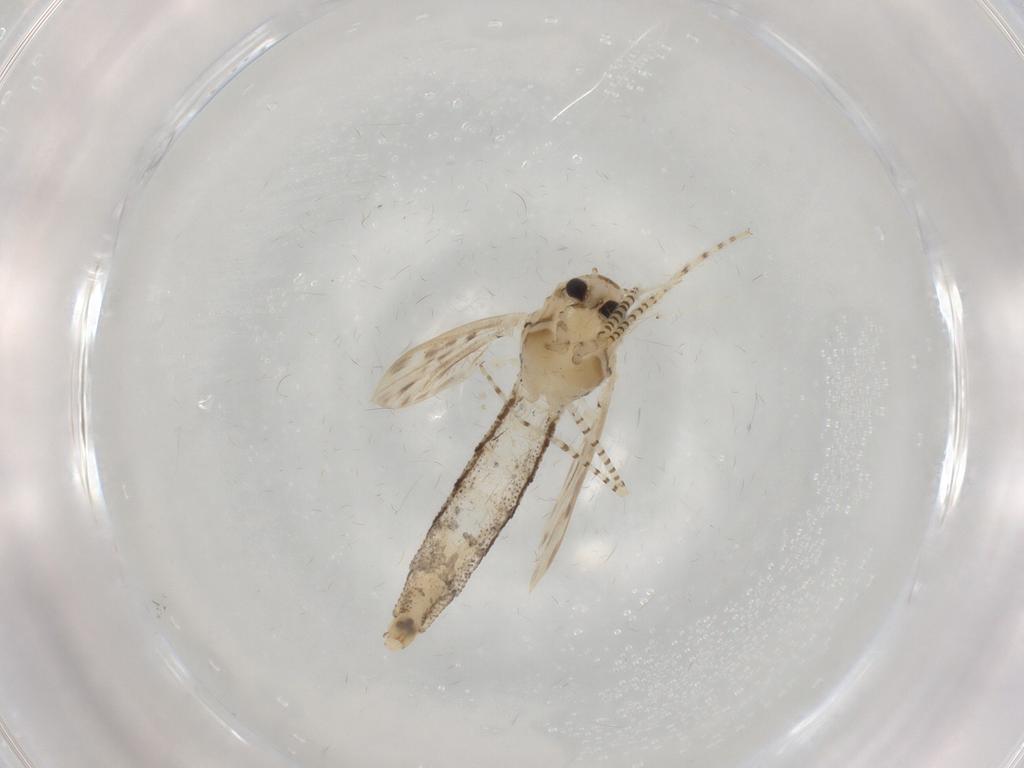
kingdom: Animalia
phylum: Arthropoda
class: Insecta
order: Diptera
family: Chaoboridae
